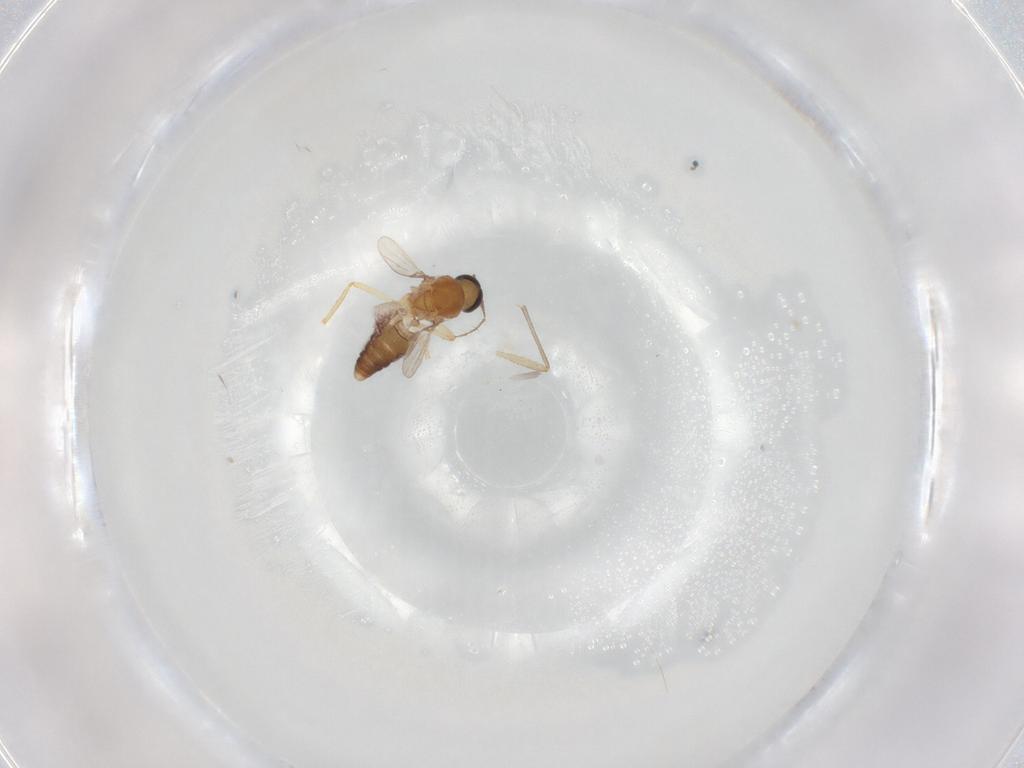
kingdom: Animalia
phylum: Arthropoda
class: Insecta
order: Diptera
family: Ceratopogonidae
